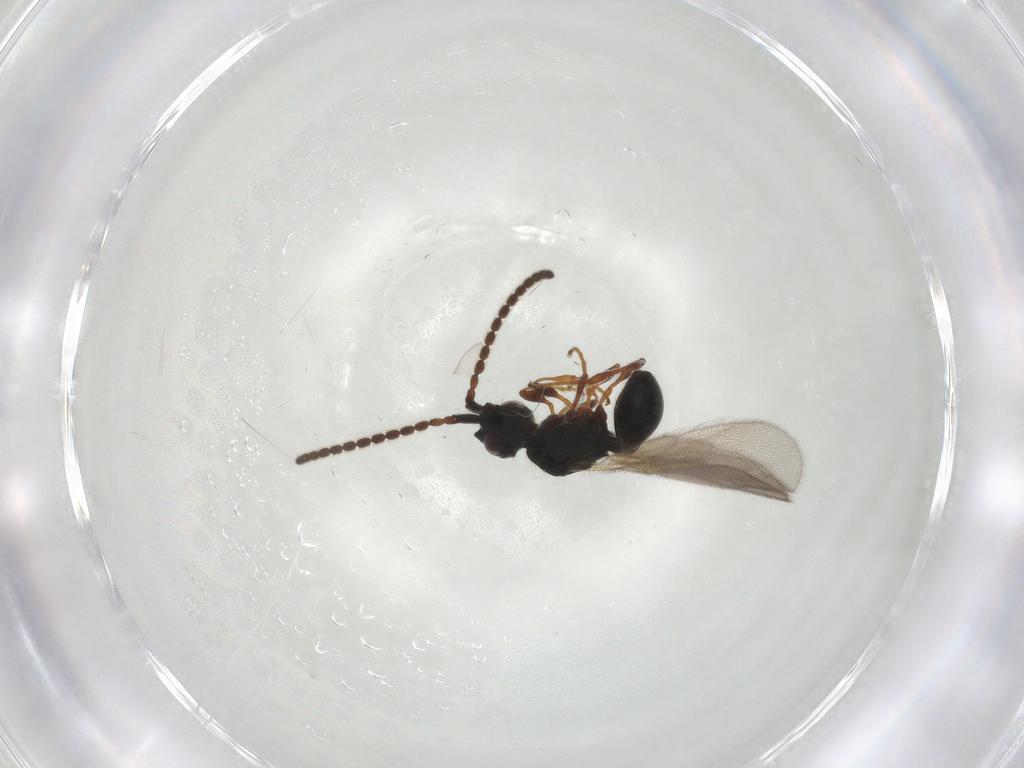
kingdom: Animalia
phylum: Arthropoda
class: Insecta
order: Hymenoptera
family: Diapriidae
